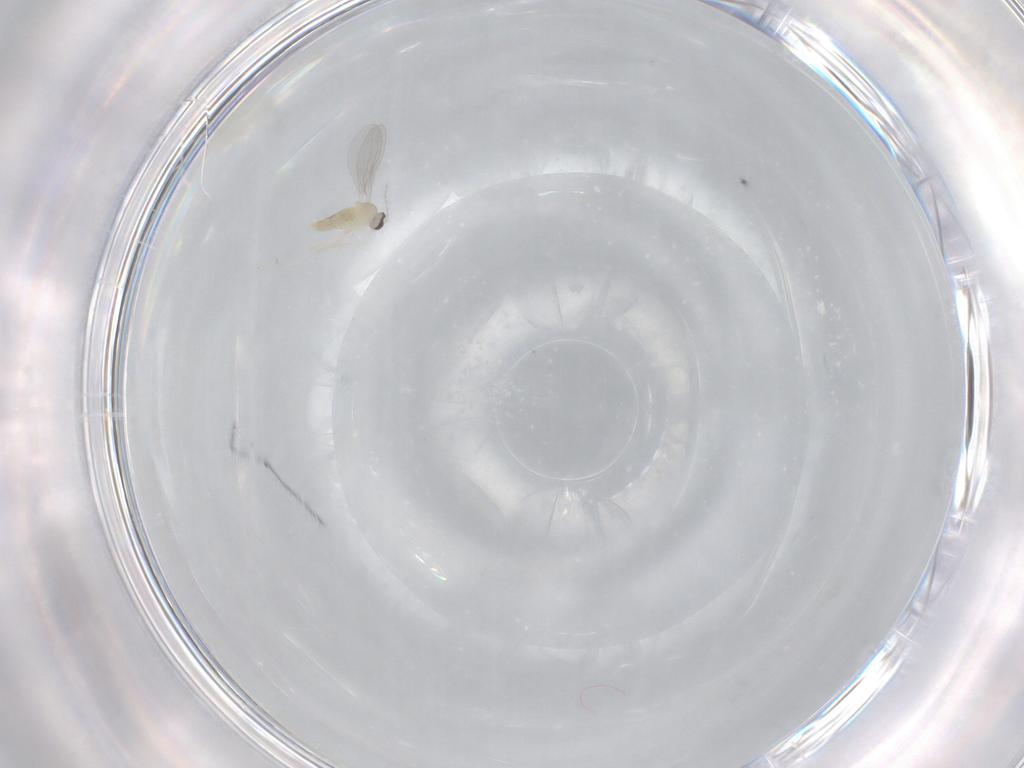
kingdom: Animalia
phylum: Arthropoda
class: Insecta
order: Diptera
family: Cecidomyiidae
